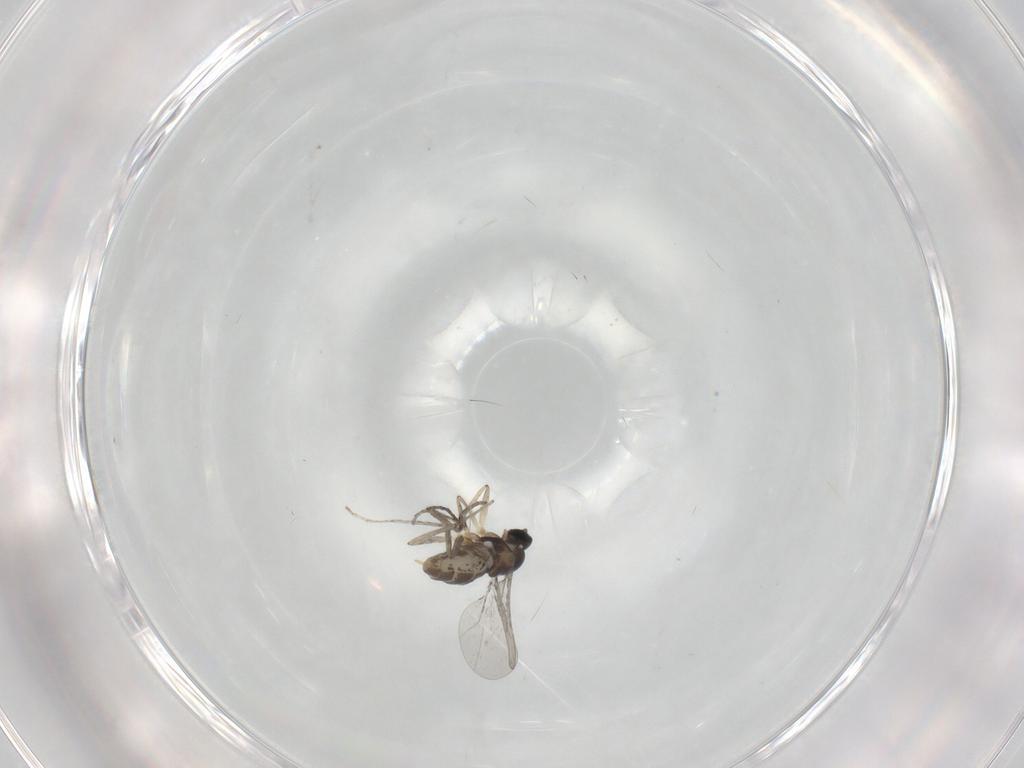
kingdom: Animalia
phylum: Arthropoda
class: Insecta
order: Diptera
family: Cecidomyiidae
